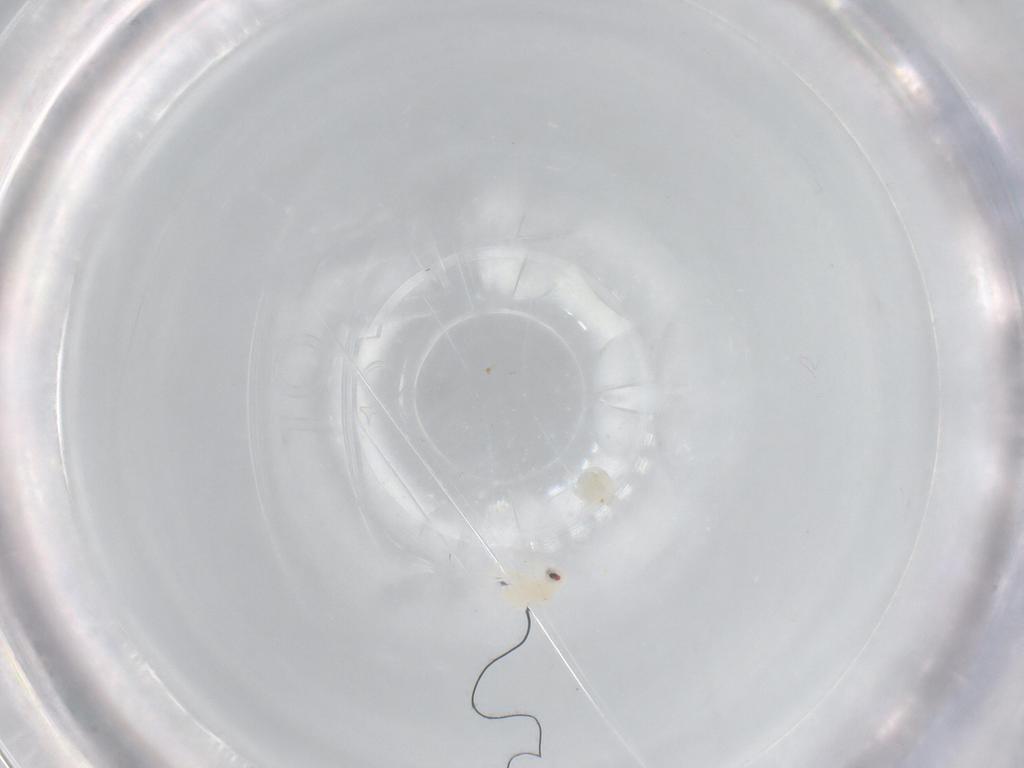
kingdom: Animalia
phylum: Arthropoda
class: Insecta
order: Hemiptera
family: Aleyrodidae
